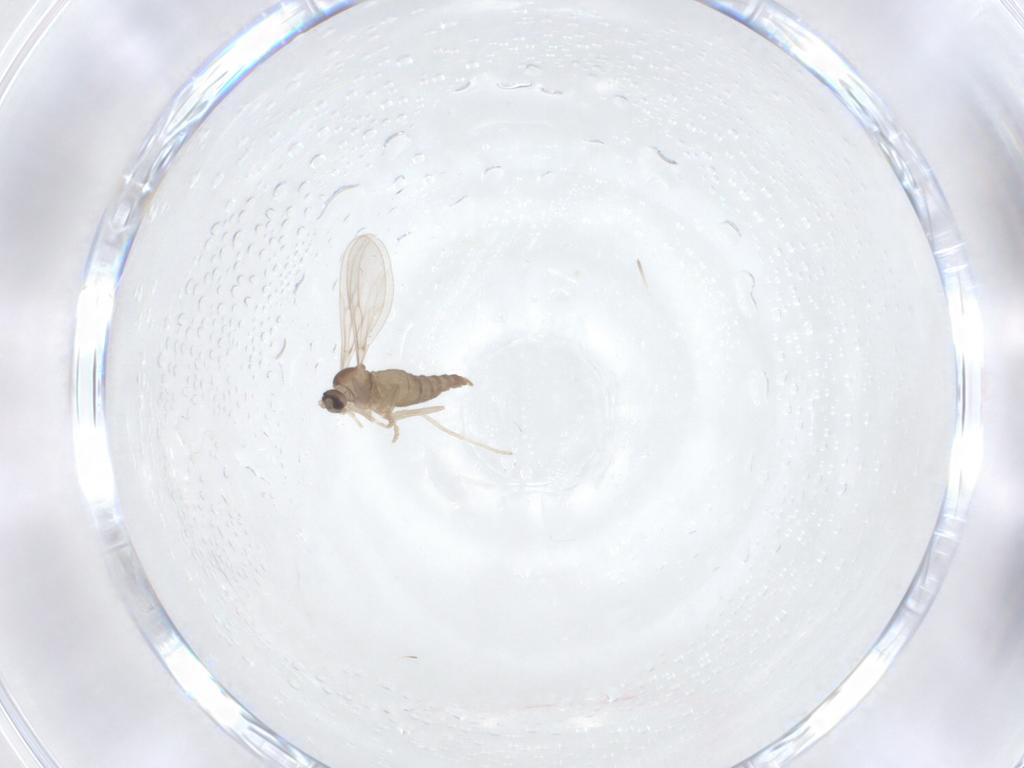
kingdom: Animalia
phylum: Arthropoda
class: Insecta
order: Diptera
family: Cecidomyiidae
